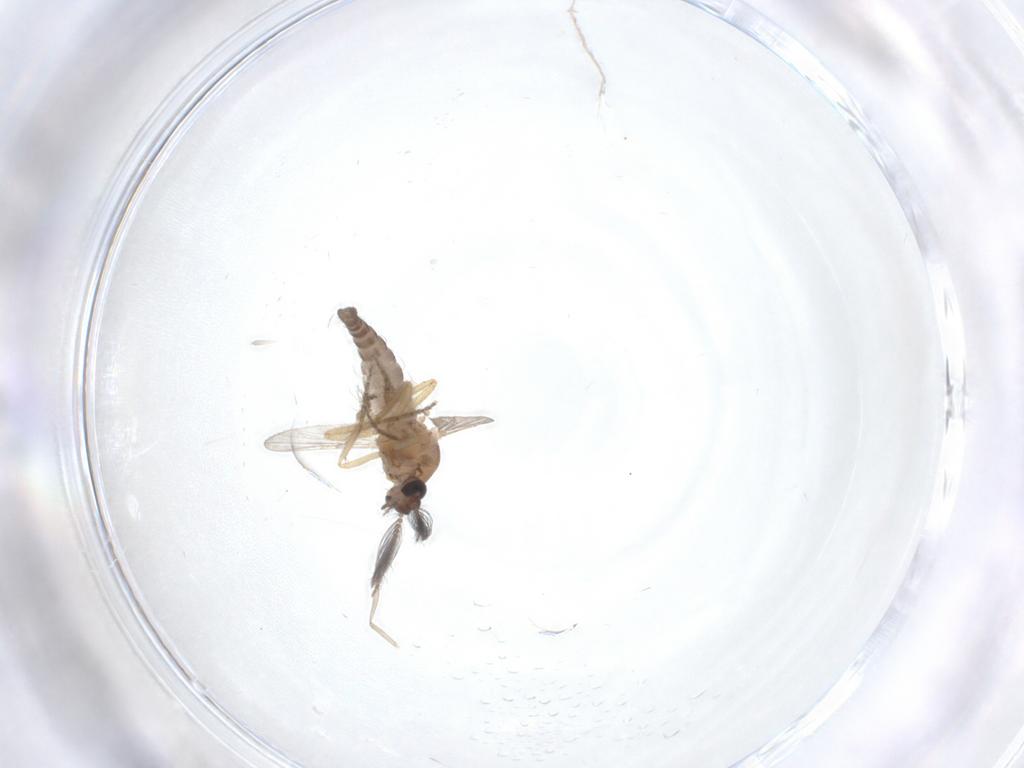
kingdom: Animalia
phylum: Arthropoda
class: Insecta
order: Diptera
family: Ceratopogonidae
